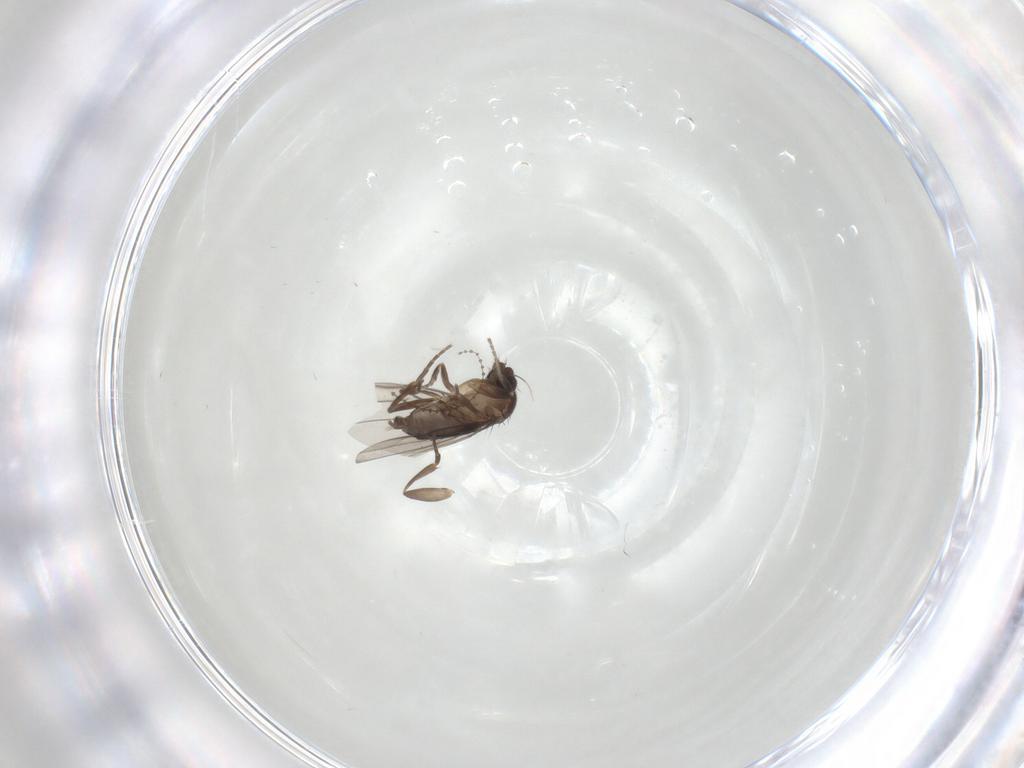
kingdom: Animalia
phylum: Arthropoda
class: Insecta
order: Diptera
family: Phoridae
